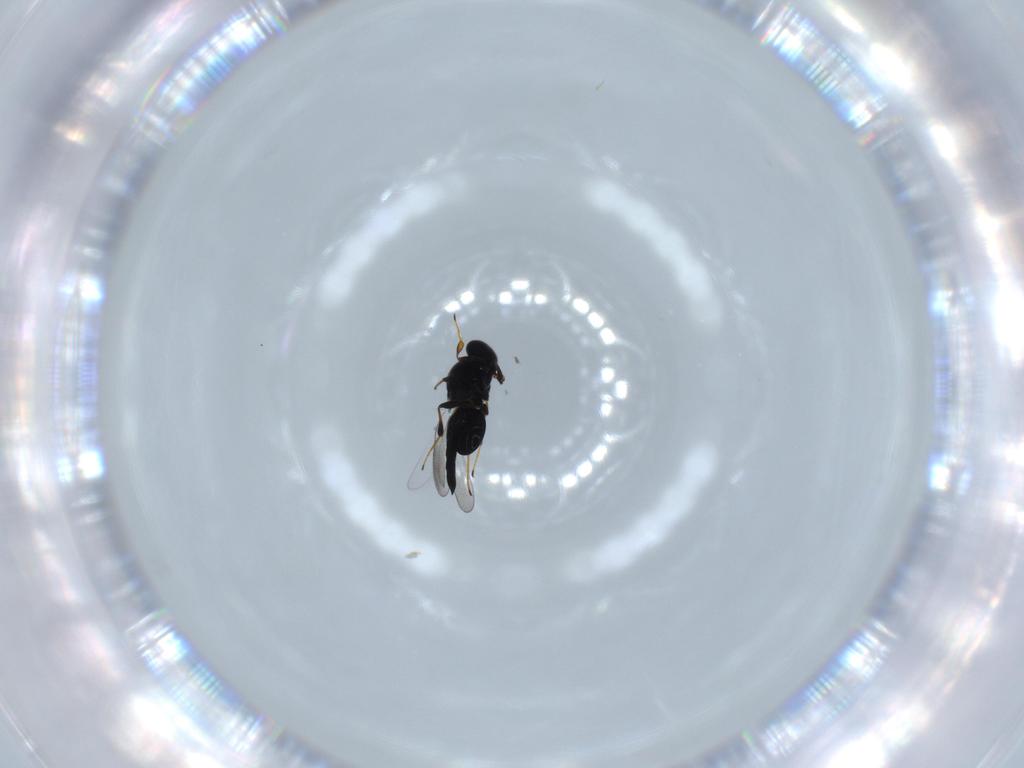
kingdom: Animalia
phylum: Arthropoda
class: Insecta
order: Hymenoptera
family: Platygastridae
